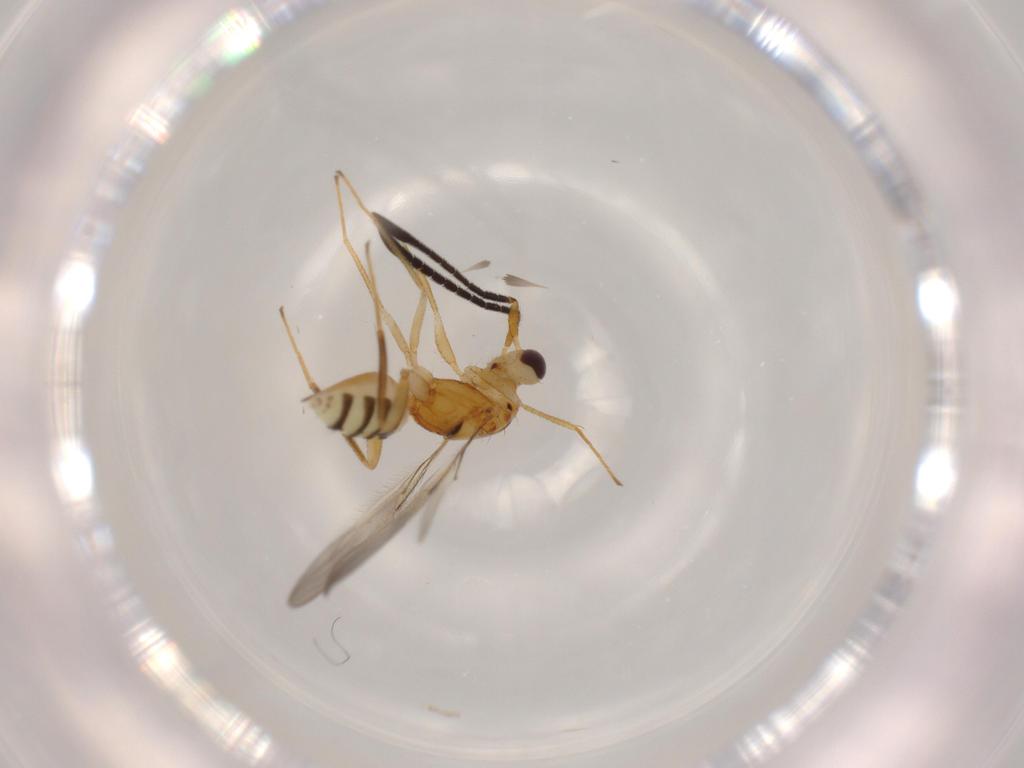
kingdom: Animalia
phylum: Arthropoda
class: Insecta
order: Hymenoptera
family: Mymaridae
